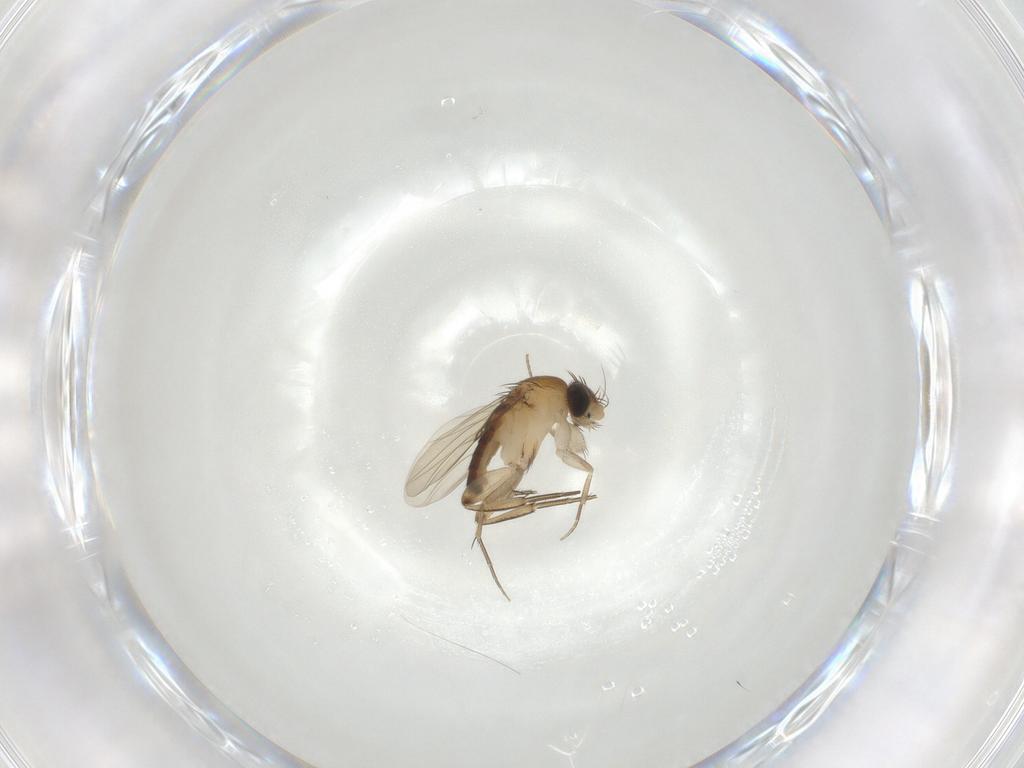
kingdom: Animalia
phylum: Arthropoda
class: Insecta
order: Diptera
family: Phoridae
